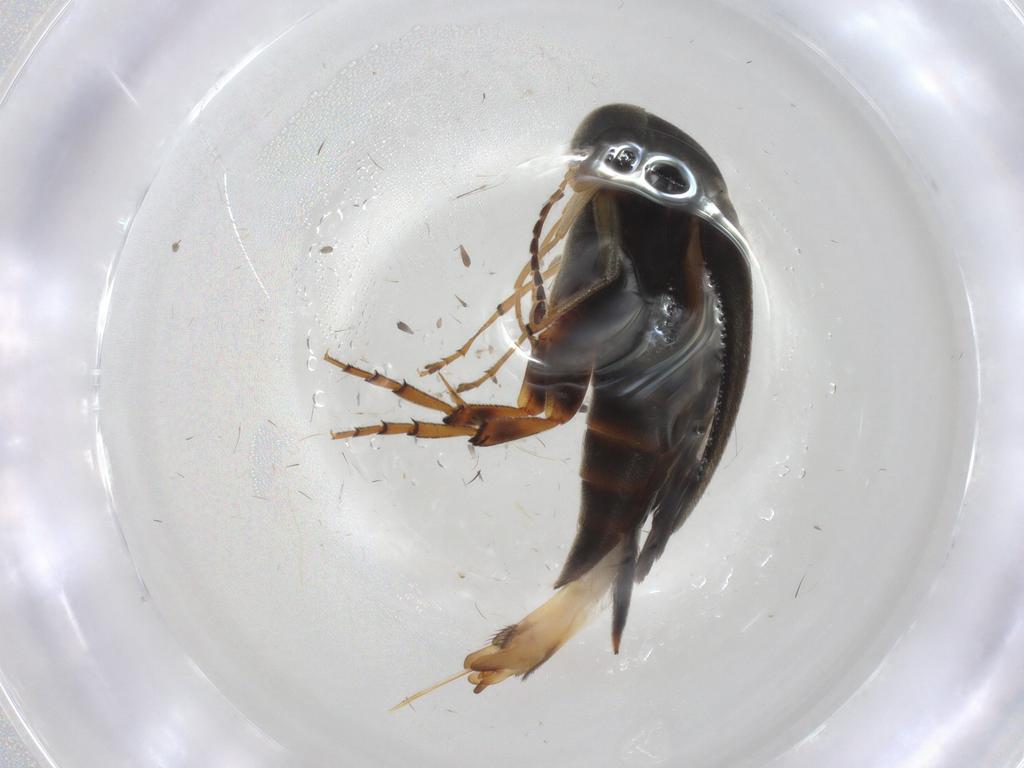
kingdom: Animalia
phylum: Arthropoda
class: Insecta
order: Coleoptera
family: Mordellidae
